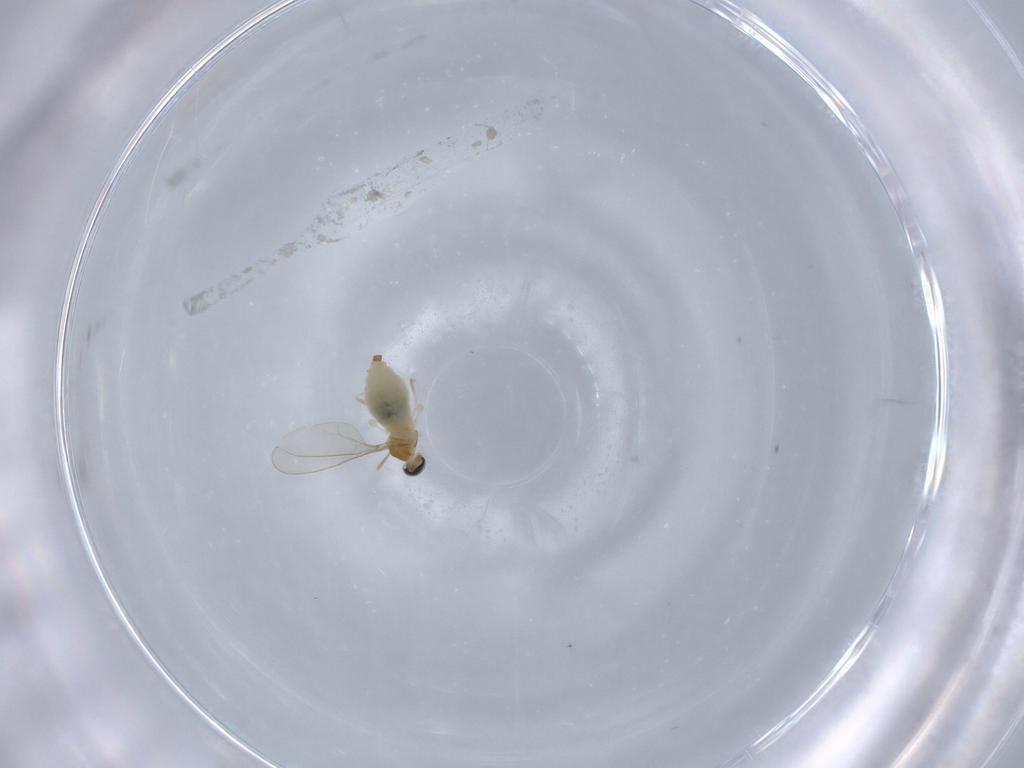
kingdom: Animalia
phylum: Arthropoda
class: Insecta
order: Diptera
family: Cecidomyiidae
